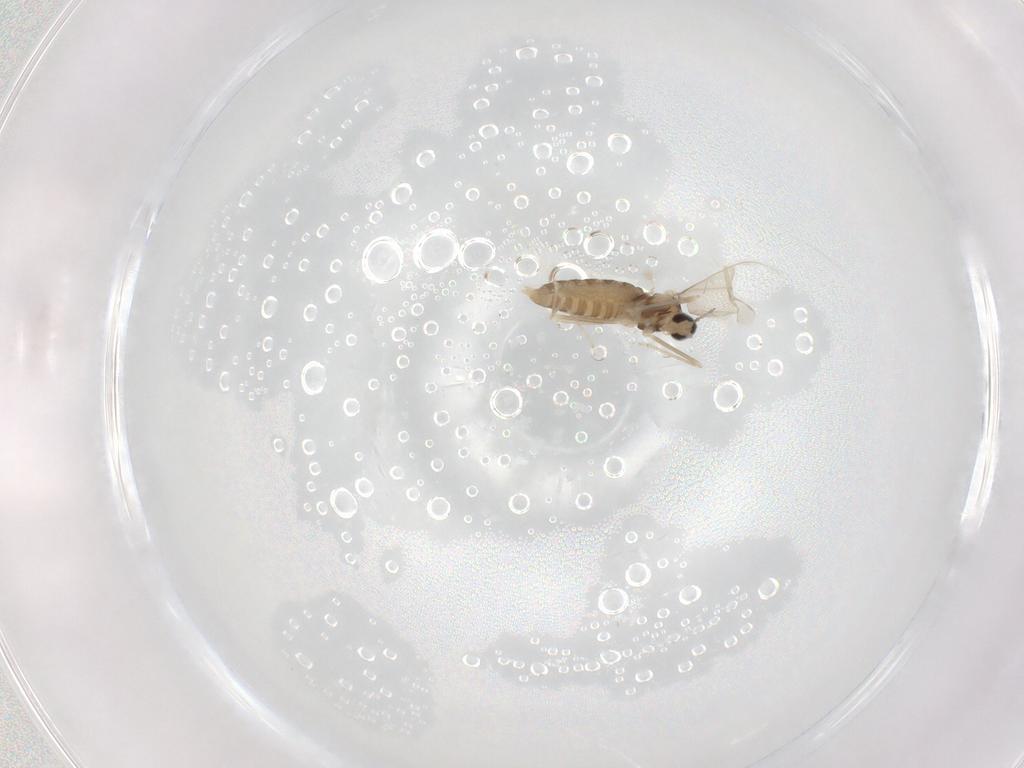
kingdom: Animalia
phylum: Arthropoda
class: Insecta
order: Diptera
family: Cecidomyiidae
